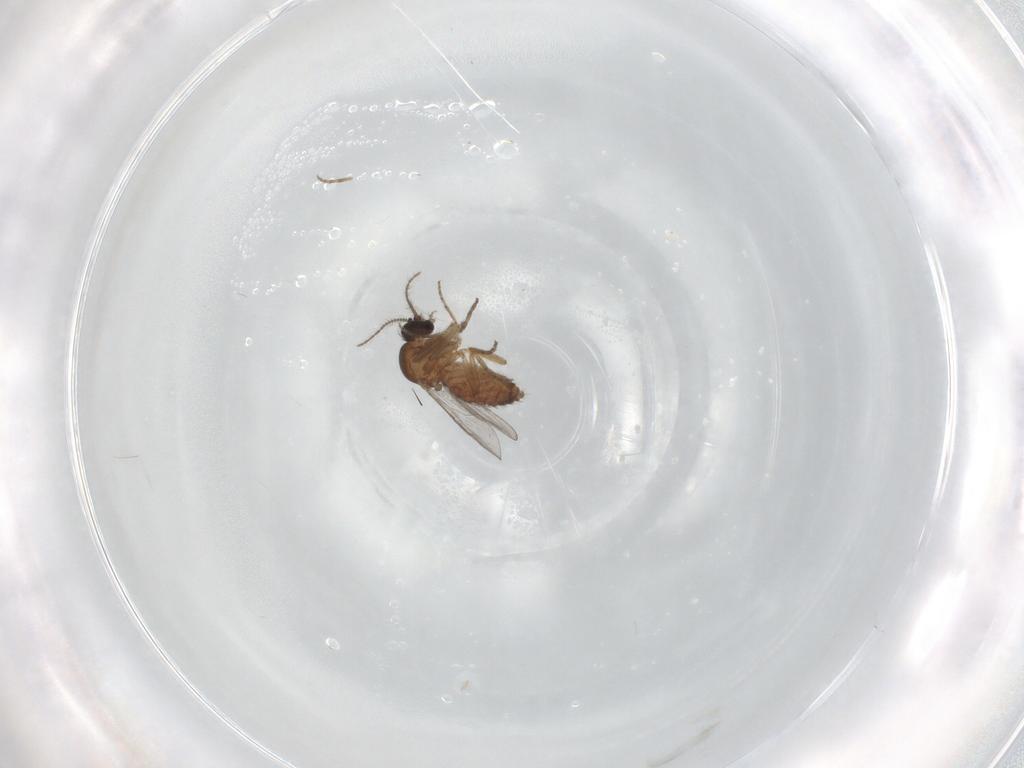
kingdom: Animalia
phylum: Arthropoda
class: Insecta
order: Diptera
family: Ceratopogonidae
